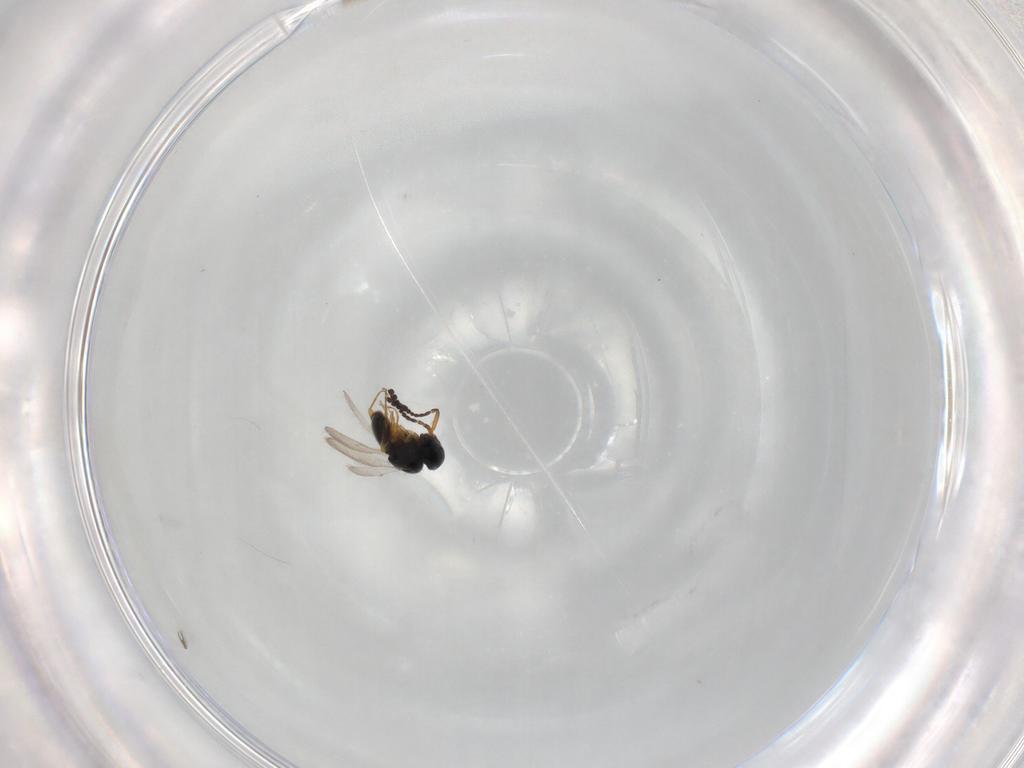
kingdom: Animalia
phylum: Arthropoda
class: Insecta
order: Hymenoptera
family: Scelionidae
